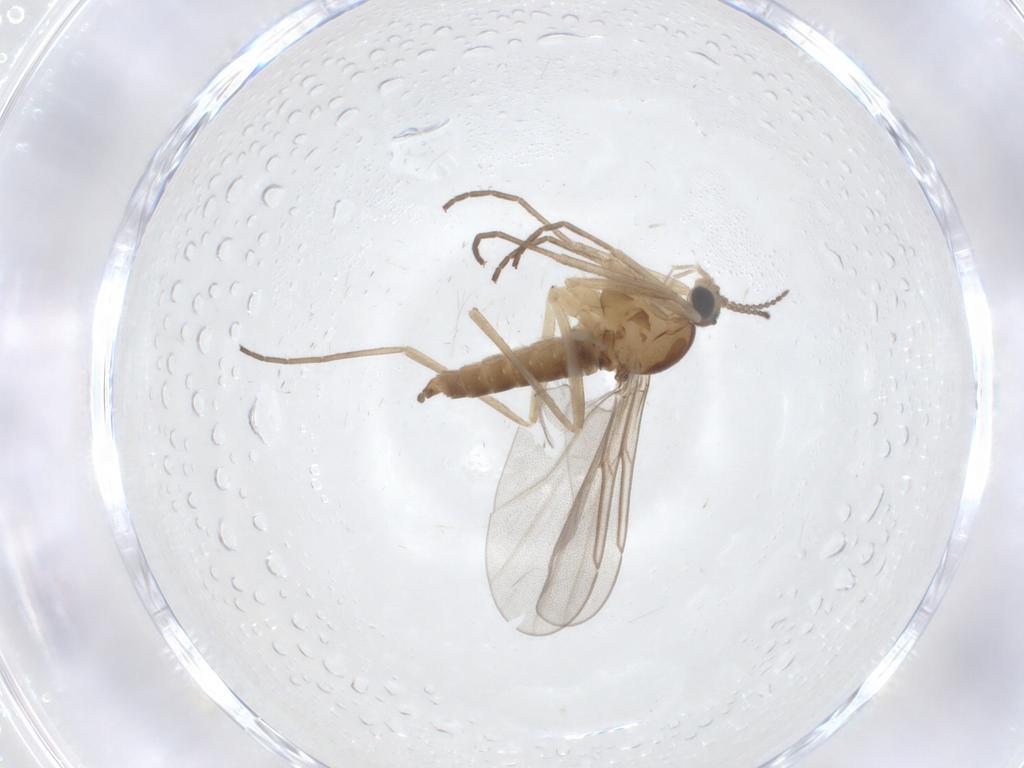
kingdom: Animalia
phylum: Arthropoda
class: Insecta
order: Diptera
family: Cecidomyiidae
